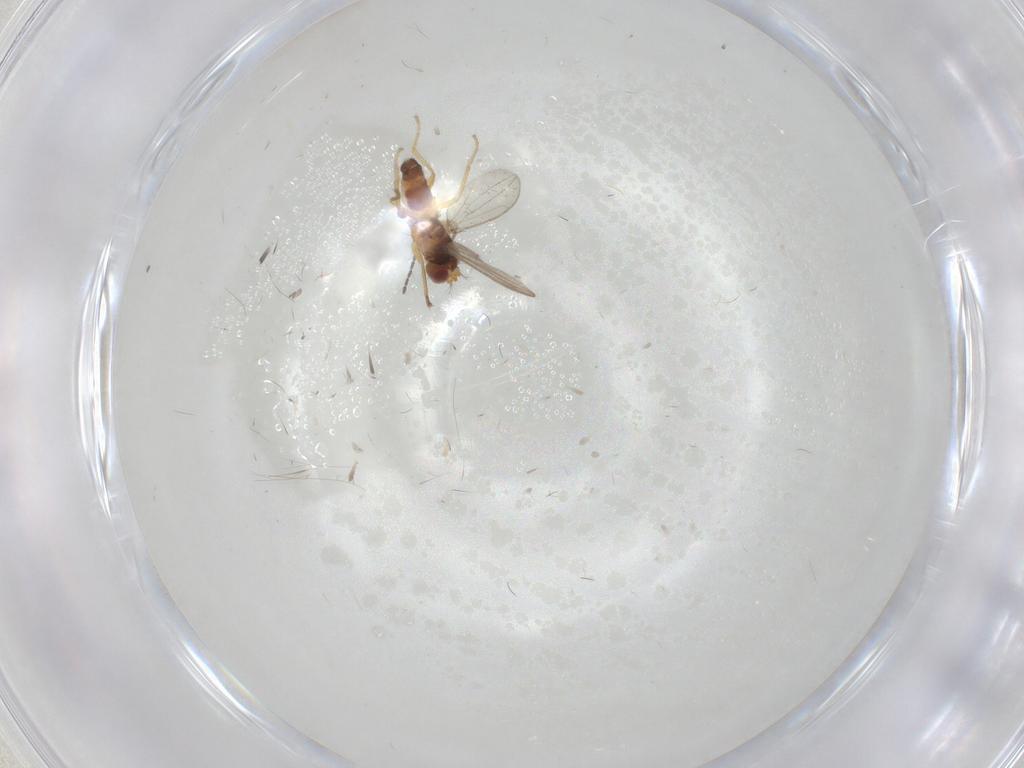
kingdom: Animalia
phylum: Arthropoda
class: Insecta
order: Diptera
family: Periscelididae
